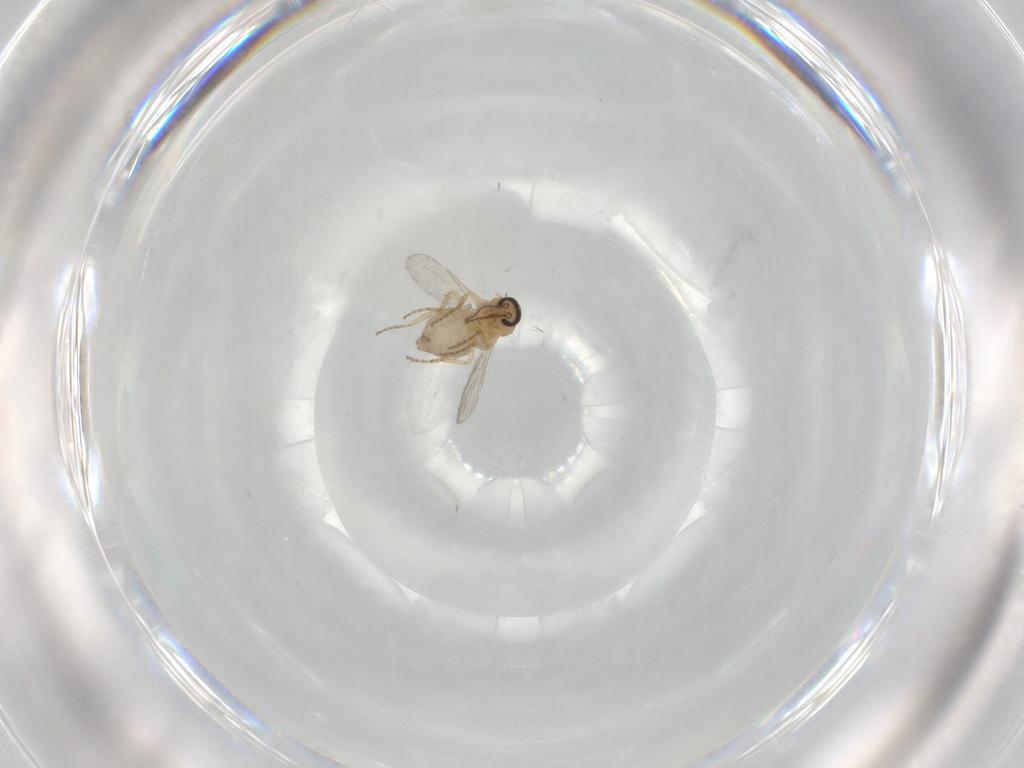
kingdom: Animalia
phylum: Arthropoda
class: Insecta
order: Diptera
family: Ceratopogonidae
